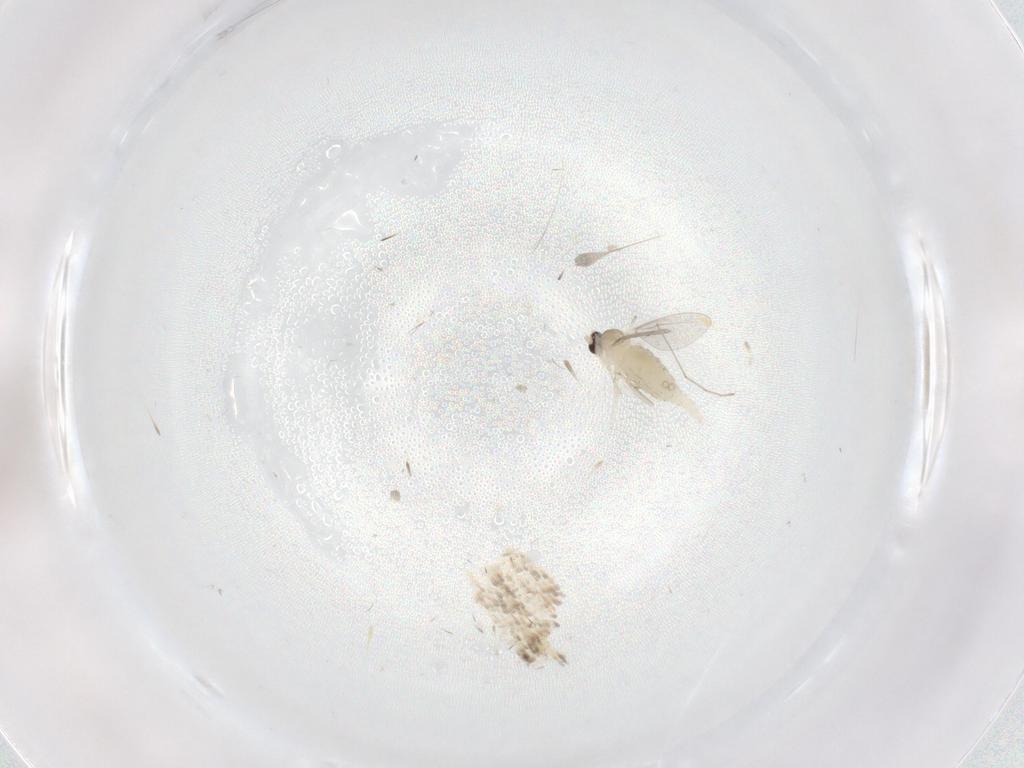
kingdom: Animalia
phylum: Arthropoda
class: Insecta
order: Diptera
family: Cecidomyiidae
